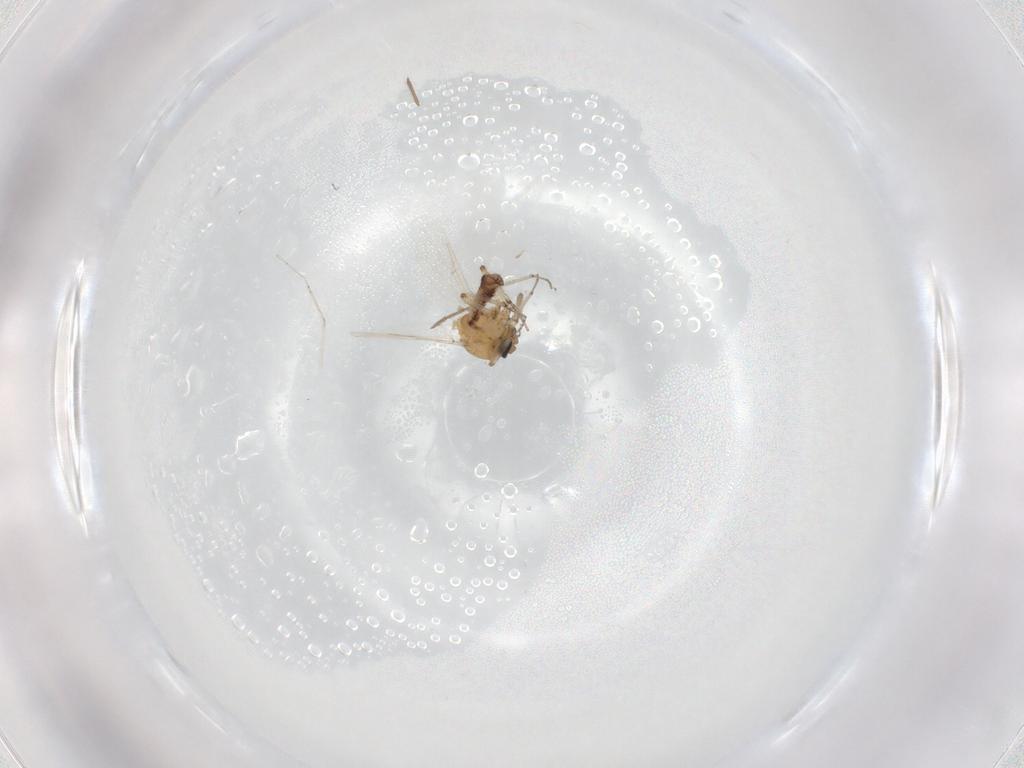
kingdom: Animalia
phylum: Arthropoda
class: Insecta
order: Diptera
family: Ceratopogonidae
